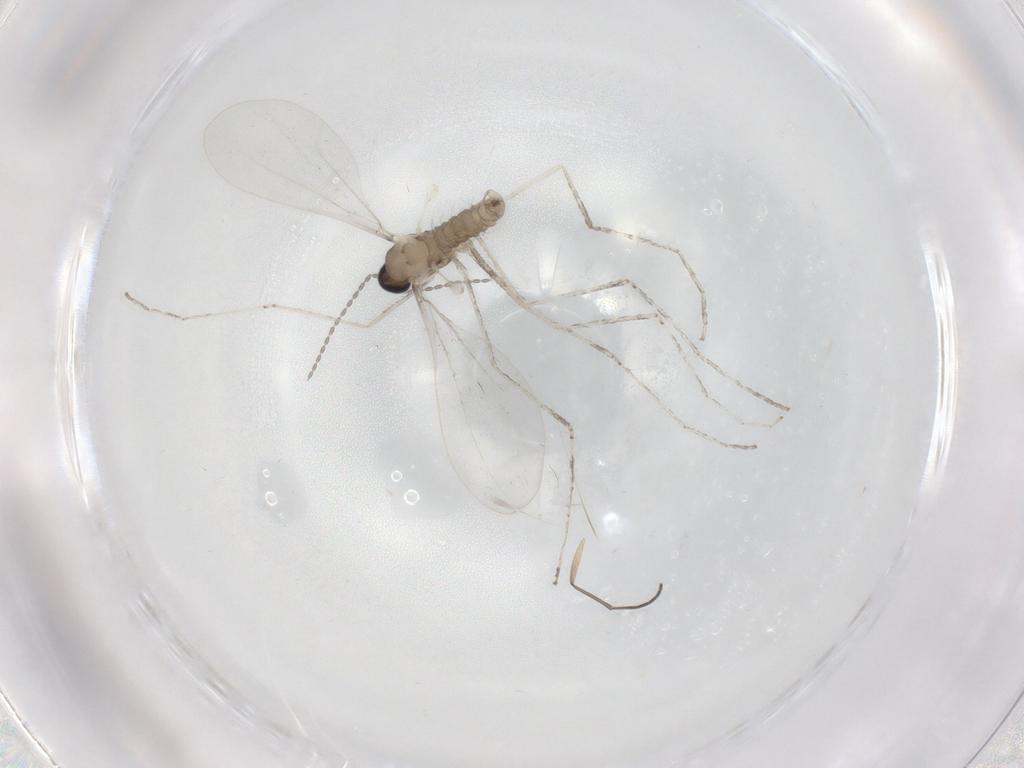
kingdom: Animalia
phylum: Arthropoda
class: Insecta
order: Diptera
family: Cecidomyiidae
